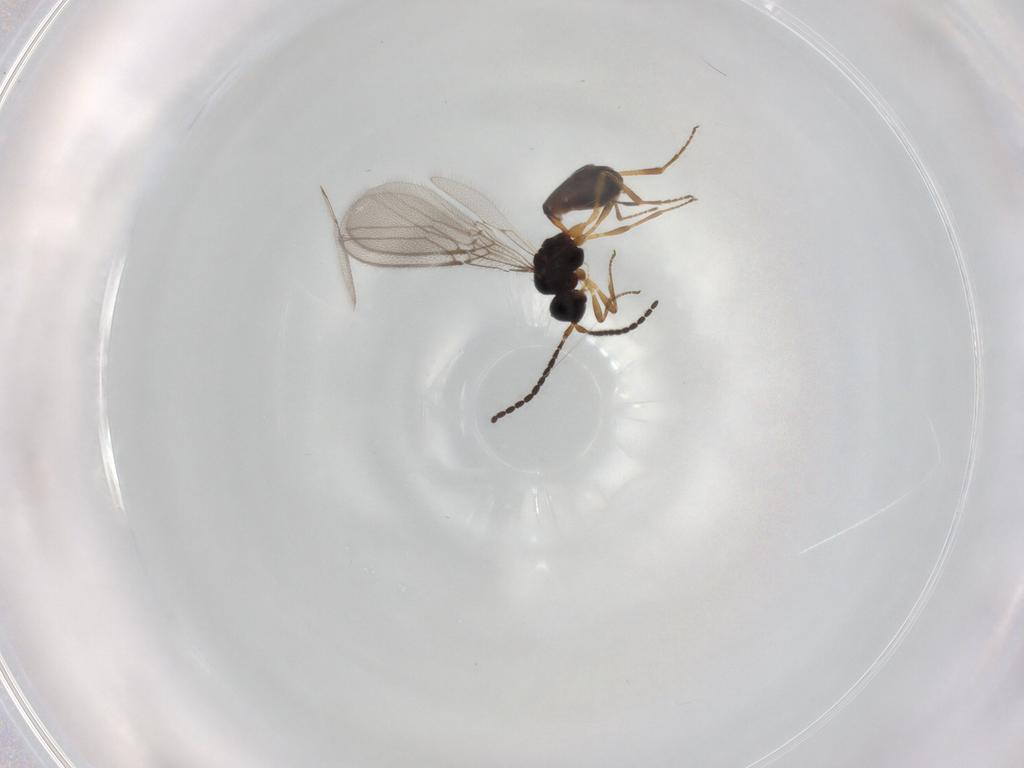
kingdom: Animalia
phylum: Arthropoda
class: Insecta
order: Hymenoptera
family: Braconidae
